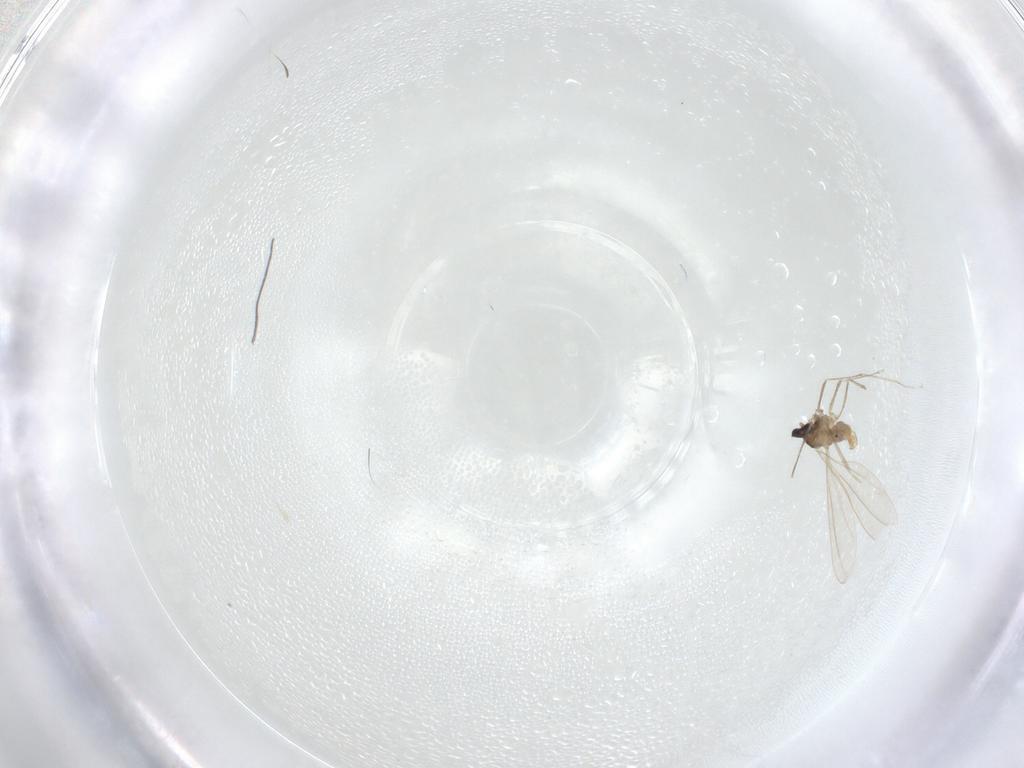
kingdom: Animalia
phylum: Arthropoda
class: Insecta
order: Diptera
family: Cecidomyiidae
